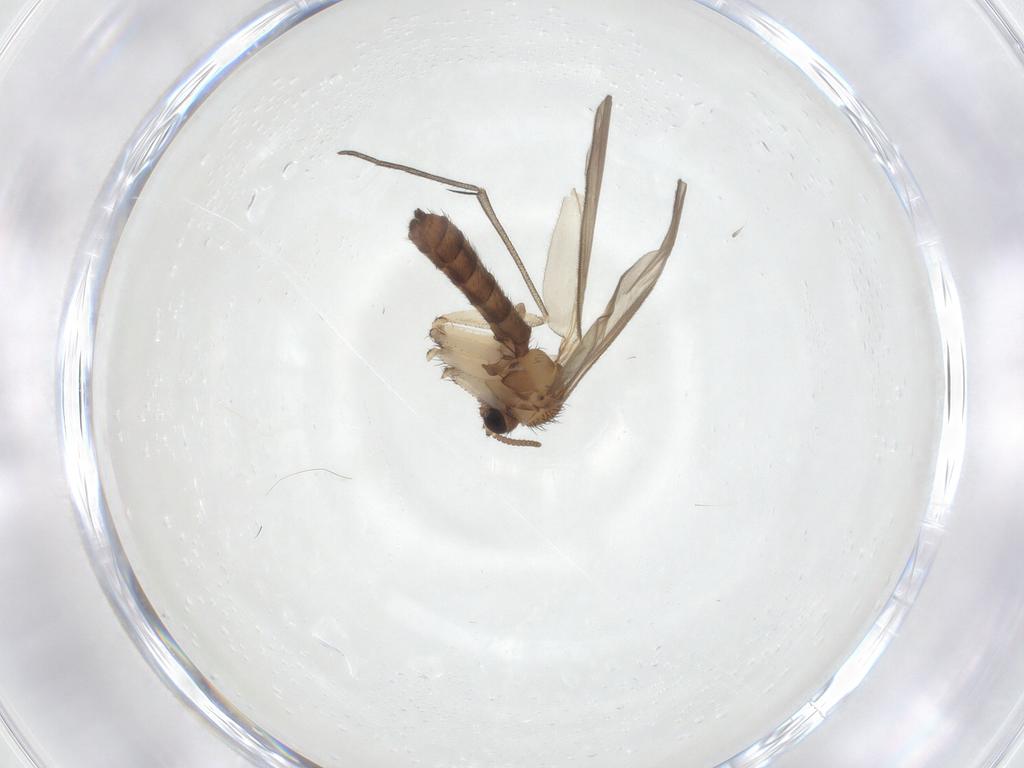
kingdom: Animalia
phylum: Arthropoda
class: Insecta
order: Diptera
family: Keroplatidae
